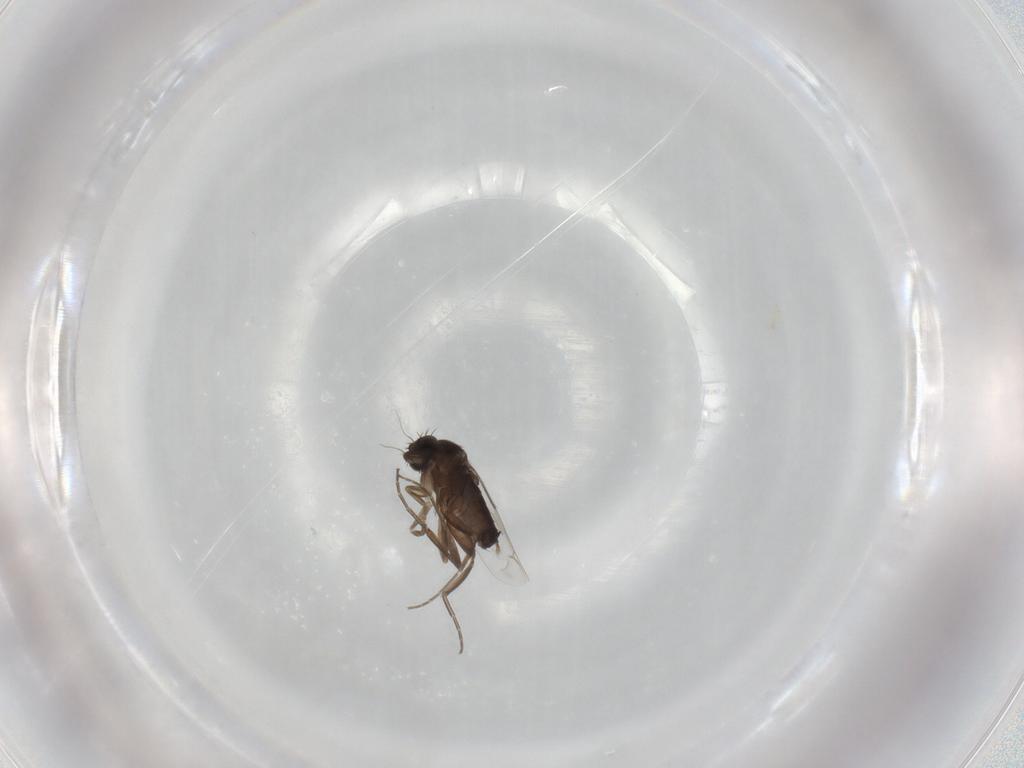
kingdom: Animalia
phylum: Arthropoda
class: Insecta
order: Diptera
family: Phoridae
